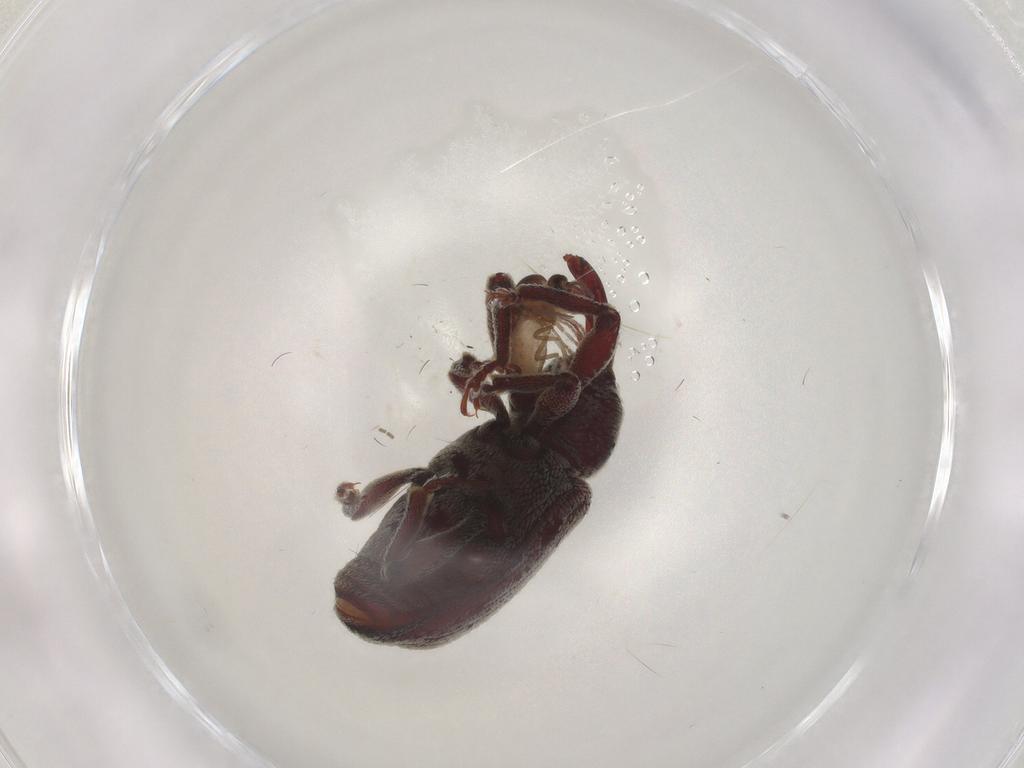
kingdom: Animalia
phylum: Arthropoda
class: Insecta
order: Coleoptera
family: Curculionidae
